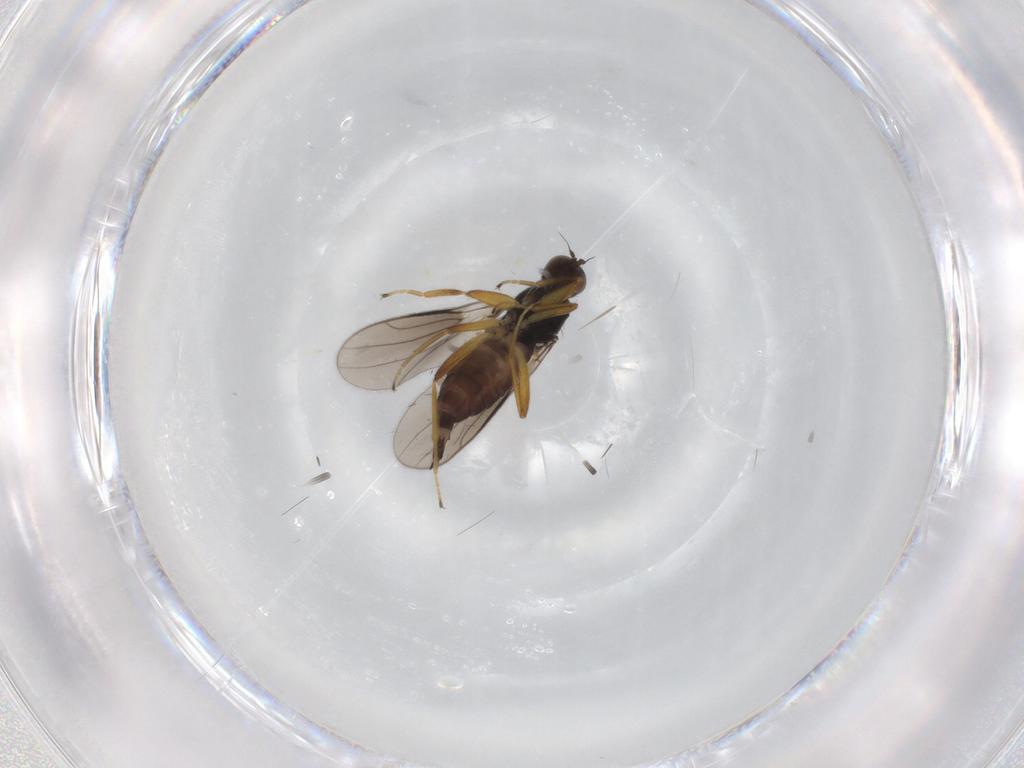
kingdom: Animalia
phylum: Arthropoda
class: Insecta
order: Diptera
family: Hybotidae
